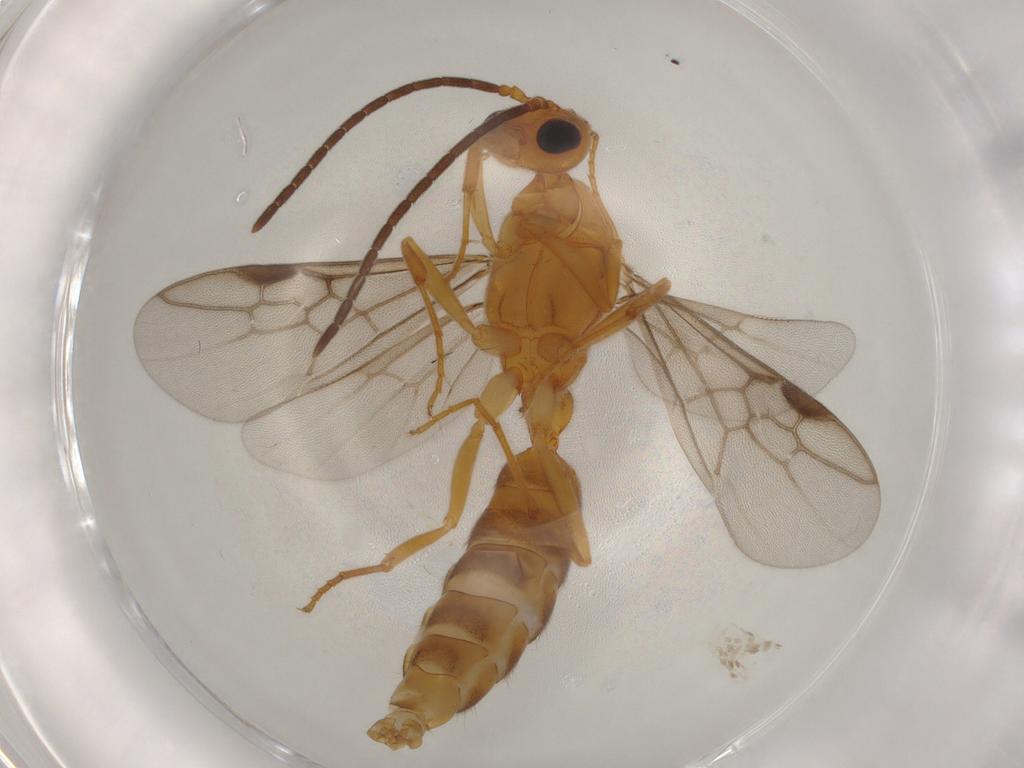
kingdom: Animalia
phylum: Arthropoda
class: Insecta
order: Hymenoptera
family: Formicidae
